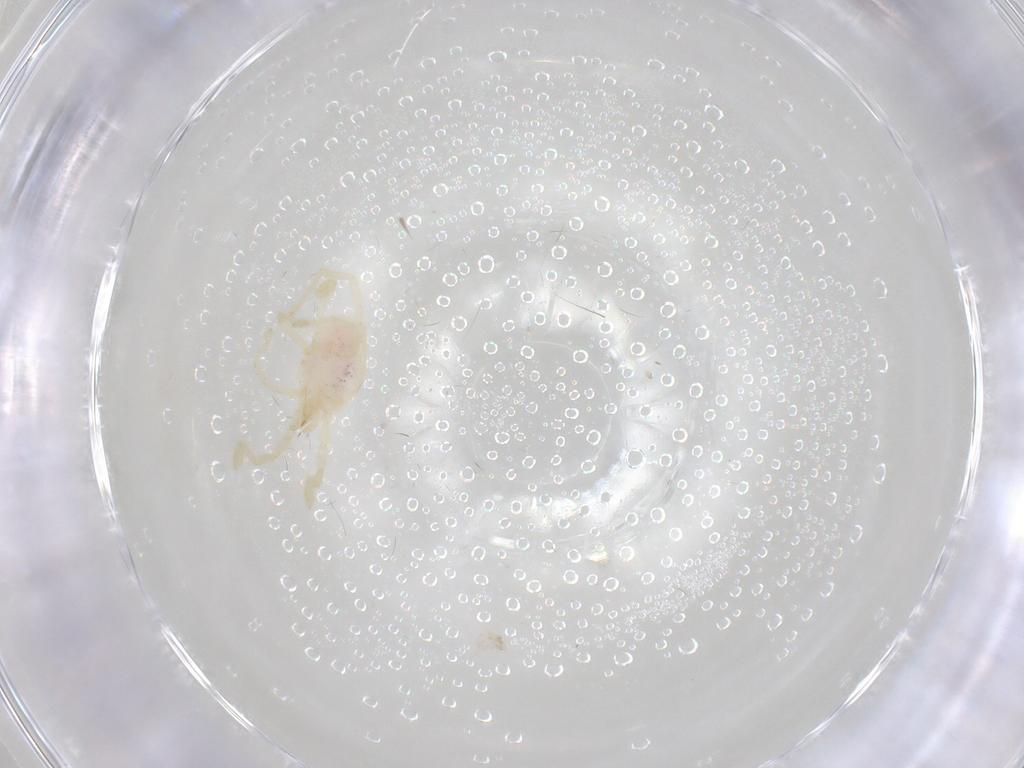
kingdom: Animalia
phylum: Arthropoda
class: Arachnida
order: Trombidiformes
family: Erythraeidae
